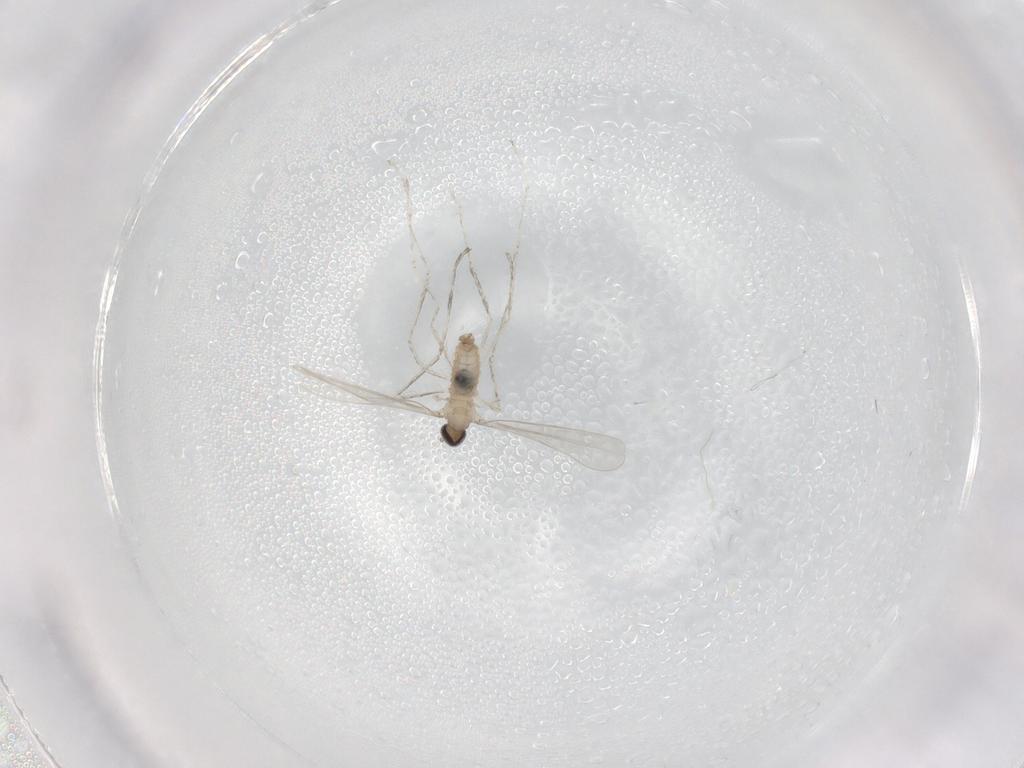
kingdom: Animalia
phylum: Arthropoda
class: Insecta
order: Diptera
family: Cecidomyiidae
